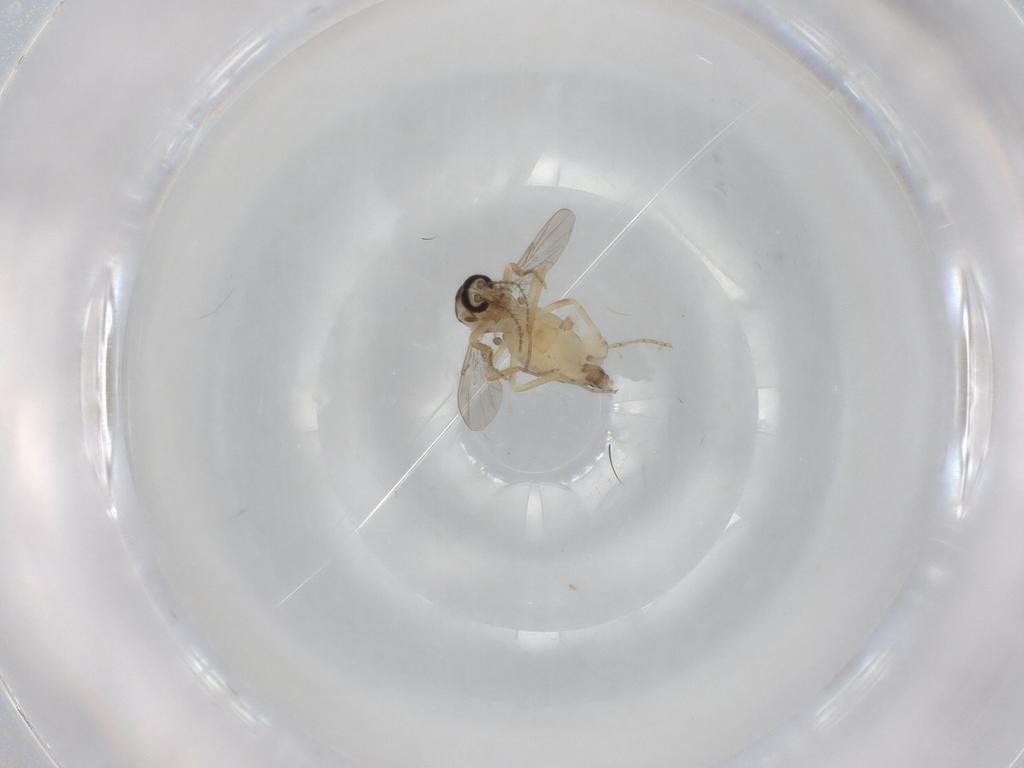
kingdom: Animalia
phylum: Arthropoda
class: Insecta
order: Diptera
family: Ceratopogonidae
